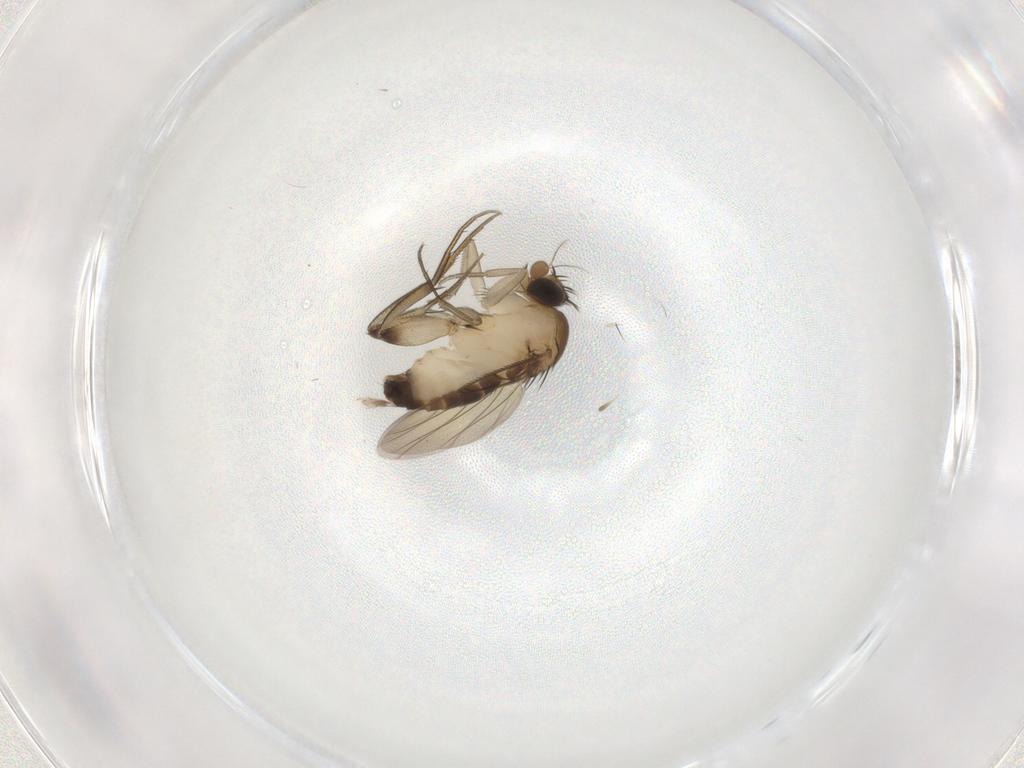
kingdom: Animalia
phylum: Arthropoda
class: Insecta
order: Diptera
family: Phoridae
